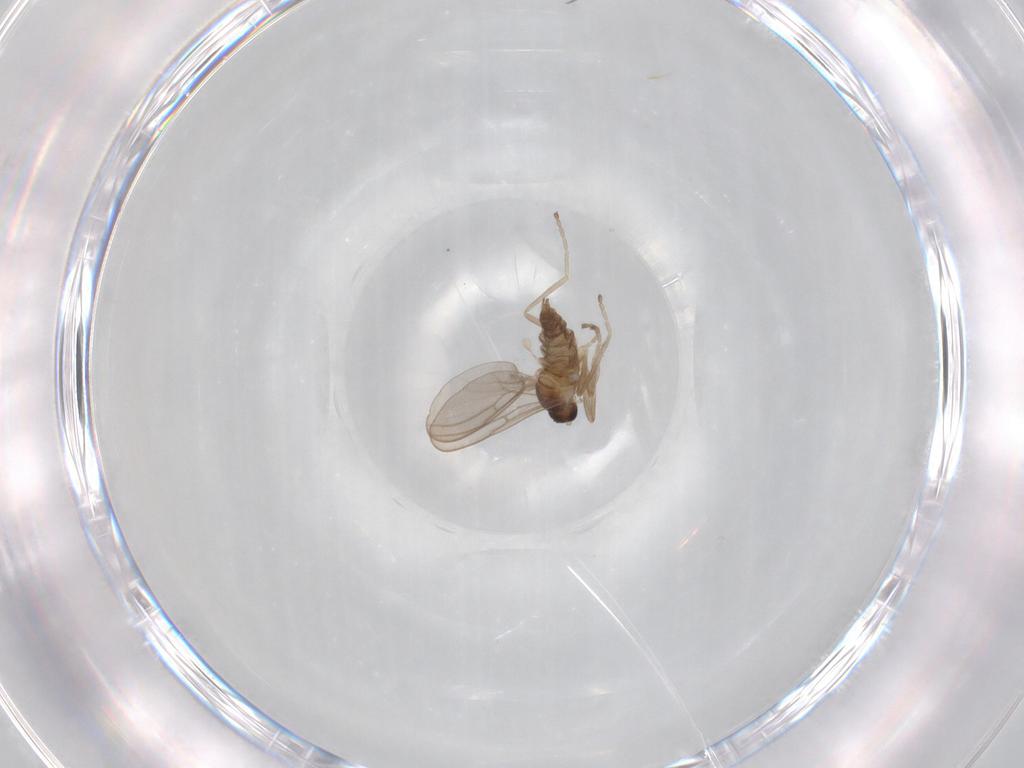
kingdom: Animalia
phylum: Arthropoda
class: Insecta
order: Diptera
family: Cecidomyiidae
